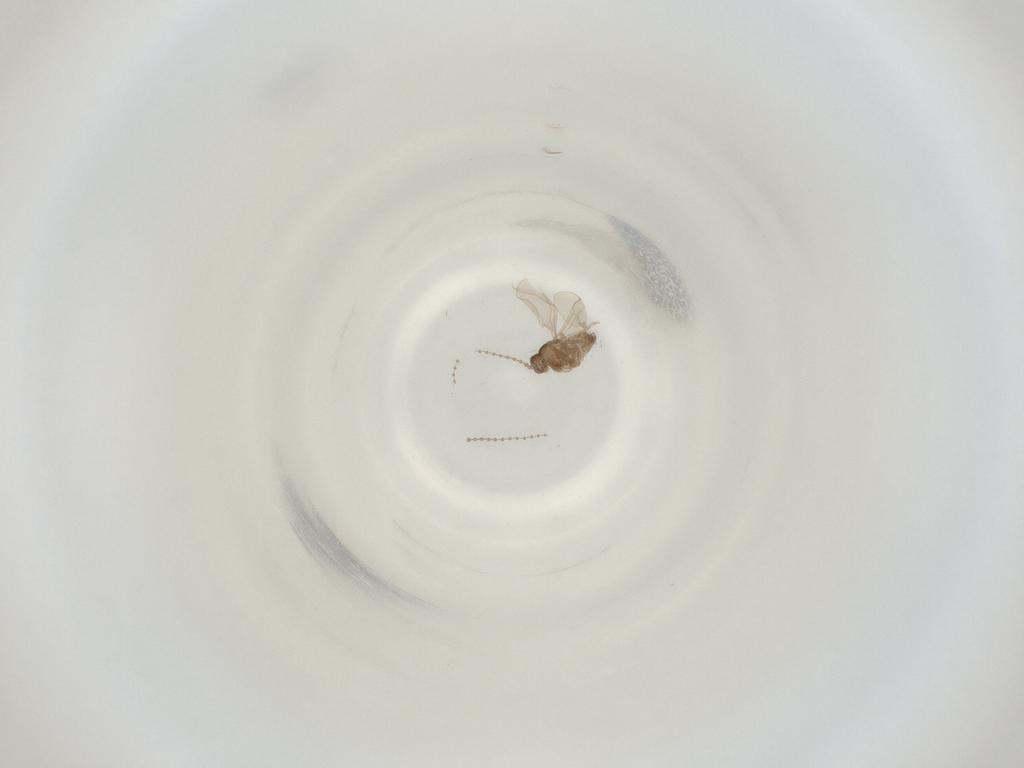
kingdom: Animalia
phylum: Arthropoda
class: Insecta
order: Diptera
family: Cecidomyiidae
